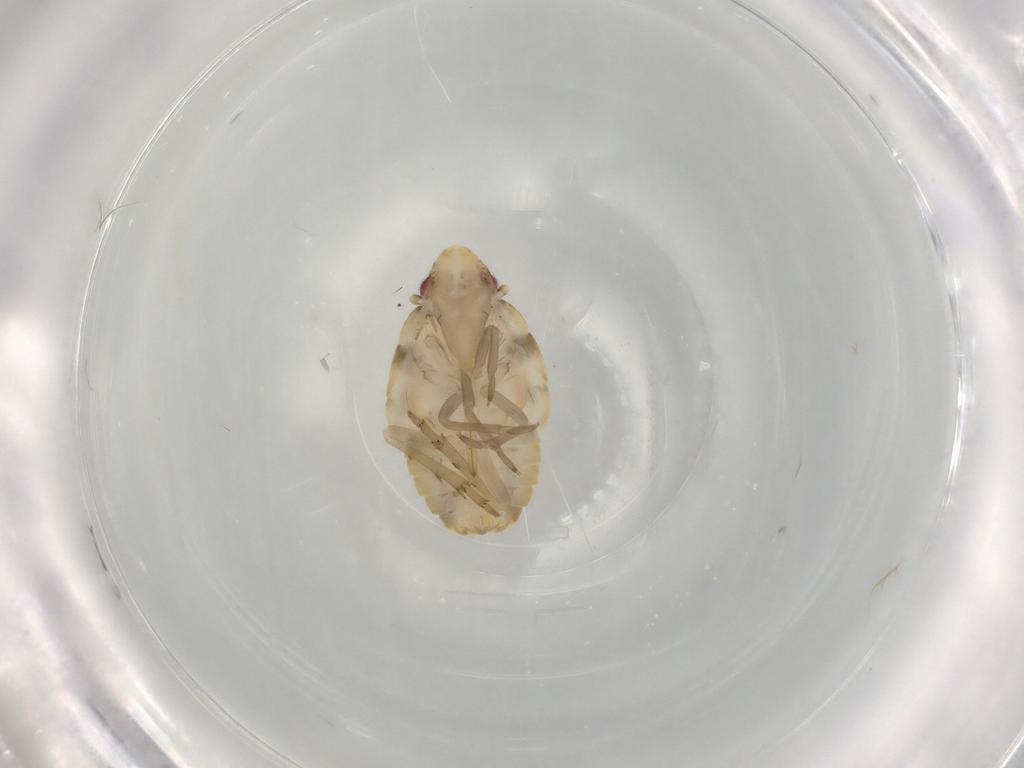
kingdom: Animalia
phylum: Arthropoda
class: Insecta
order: Hemiptera
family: Flatidae
